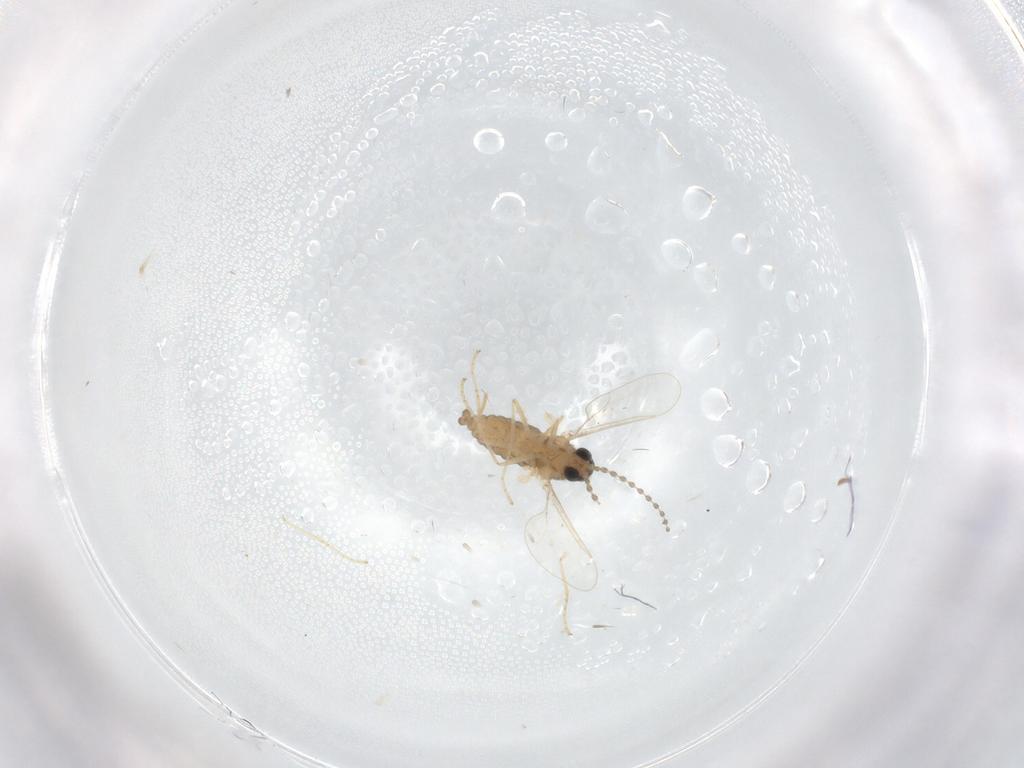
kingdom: Animalia
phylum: Arthropoda
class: Insecta
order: Diptera
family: Cecidomyiidae
